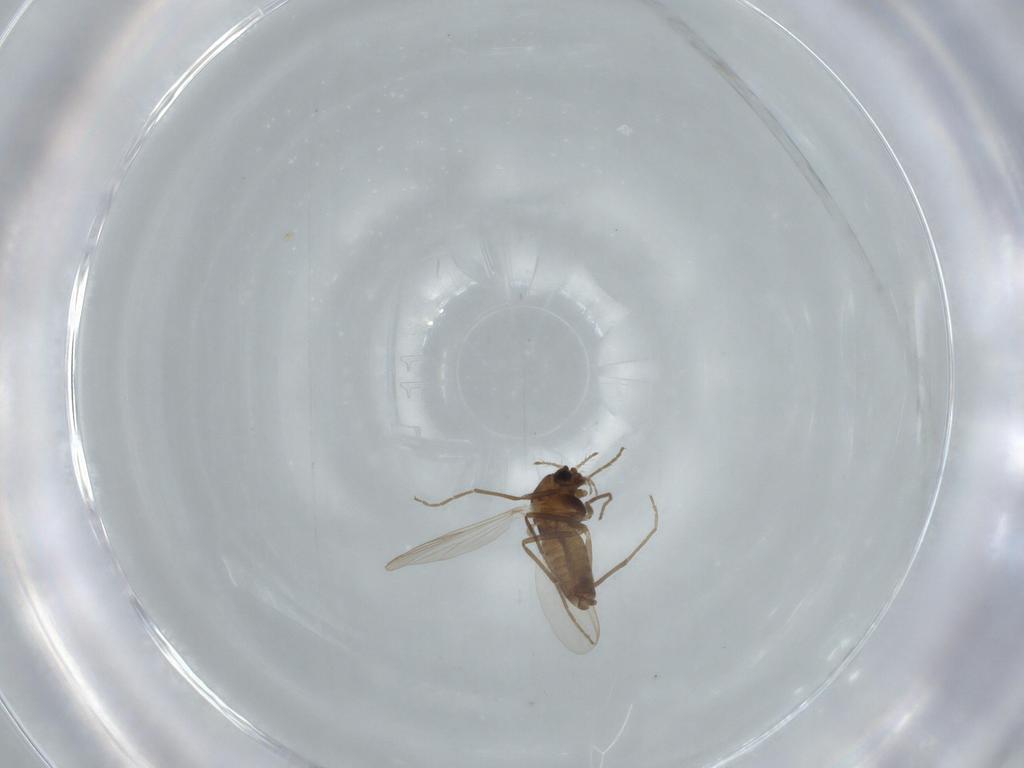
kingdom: Animalia
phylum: Arthropoda
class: Insecta
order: Diptera
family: Chironomidae
